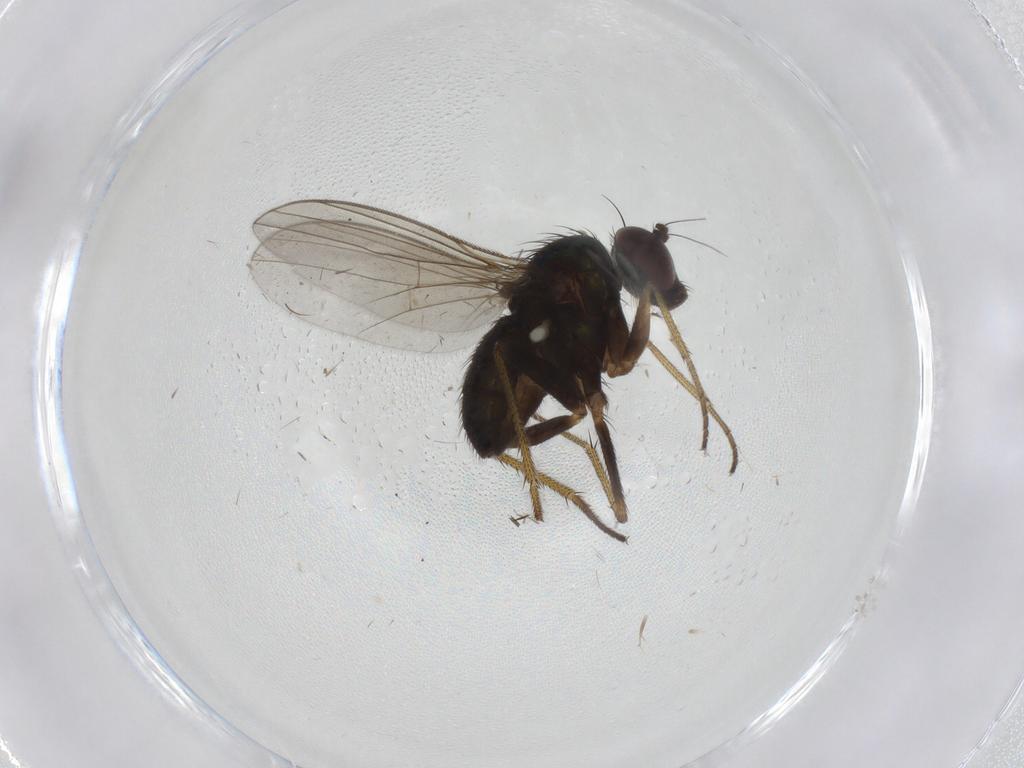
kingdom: Animalia
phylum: Arthropoda
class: Insecta
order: Diptera
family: Dolichopodidae
